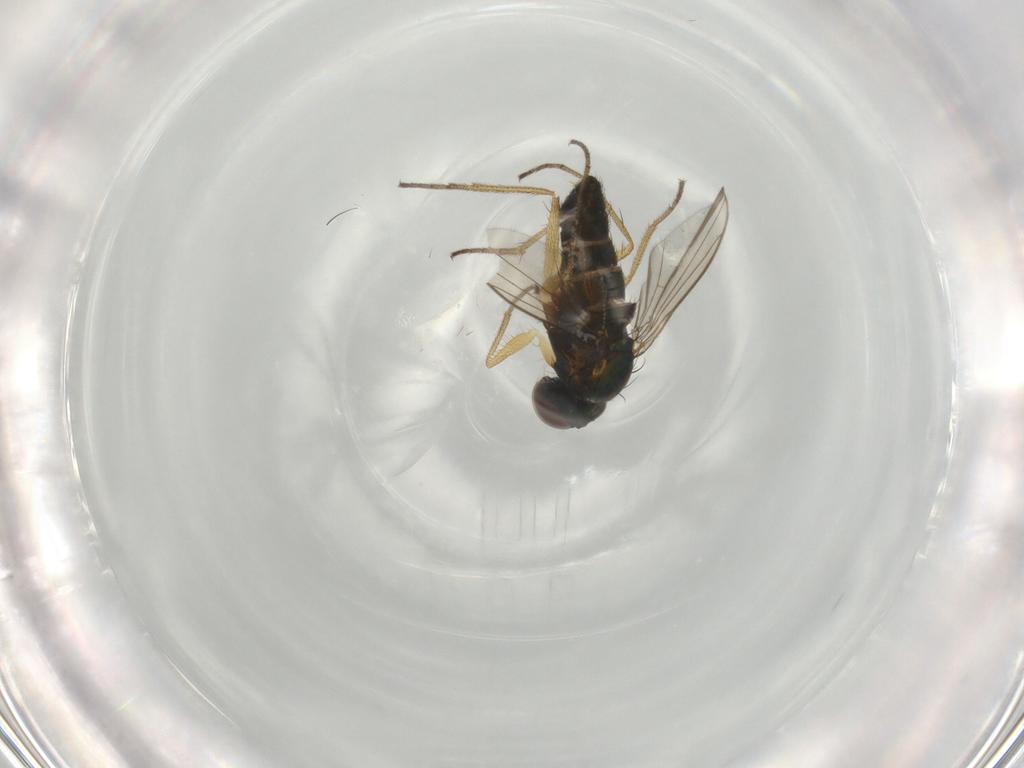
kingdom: Animalia
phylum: Arthropoda
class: Insecta
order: Diptera
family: Dolichopodidae
